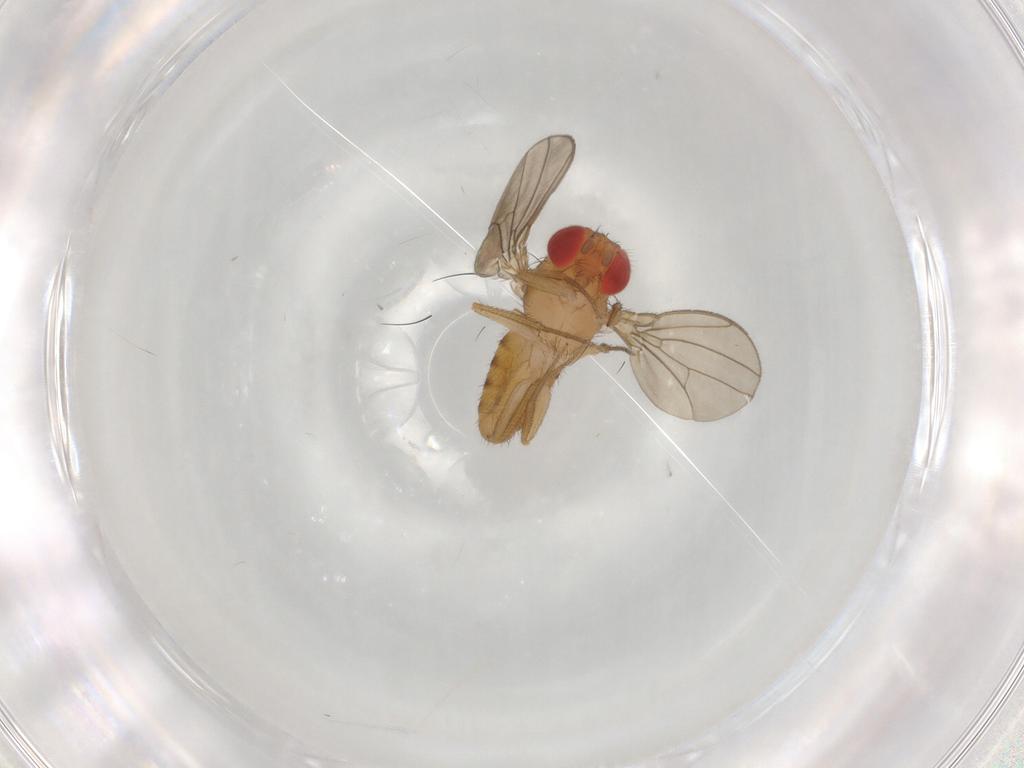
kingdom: Animalia
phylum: Arthropoda
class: Insecta
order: Diptera
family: Drosophilidae
